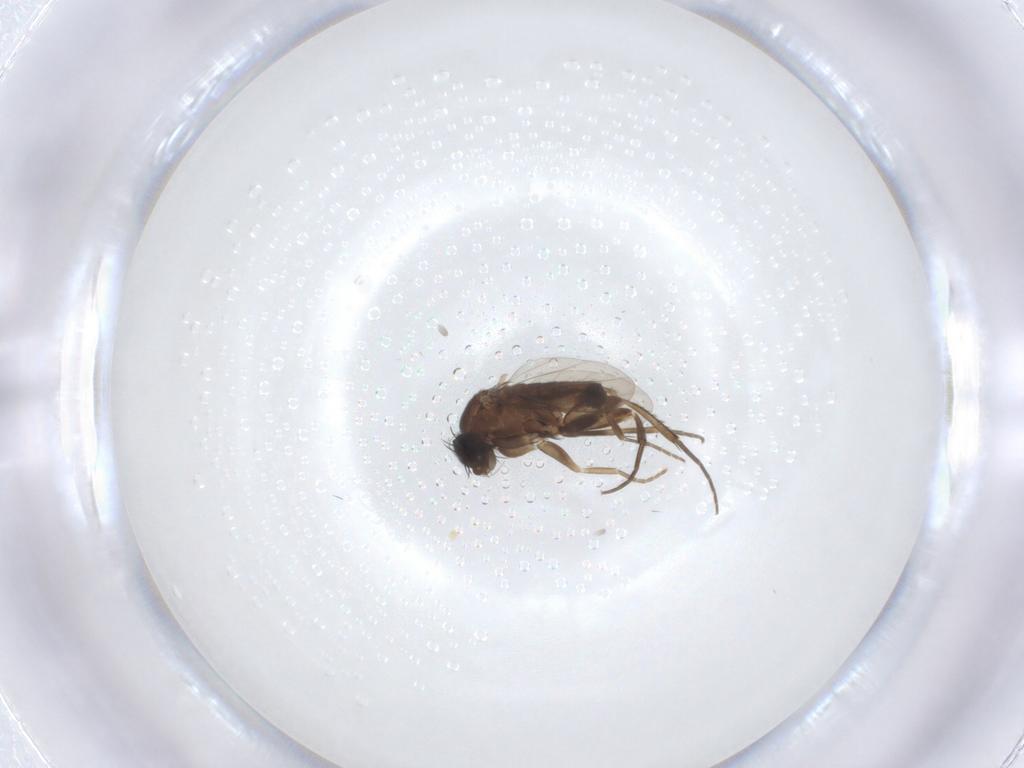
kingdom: Animalia
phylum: Arthropoda
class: Insecta
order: Diptera
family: Phoridae
